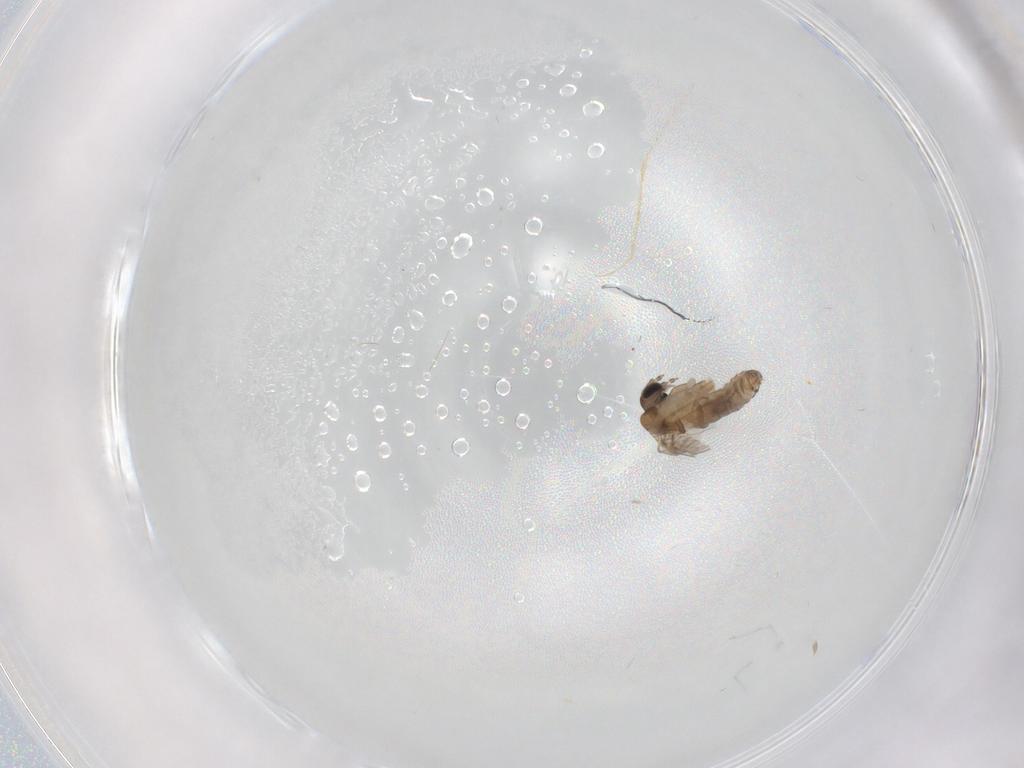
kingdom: Animalia
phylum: Arthropoda
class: Insecta
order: Diptera
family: Psychodidae
